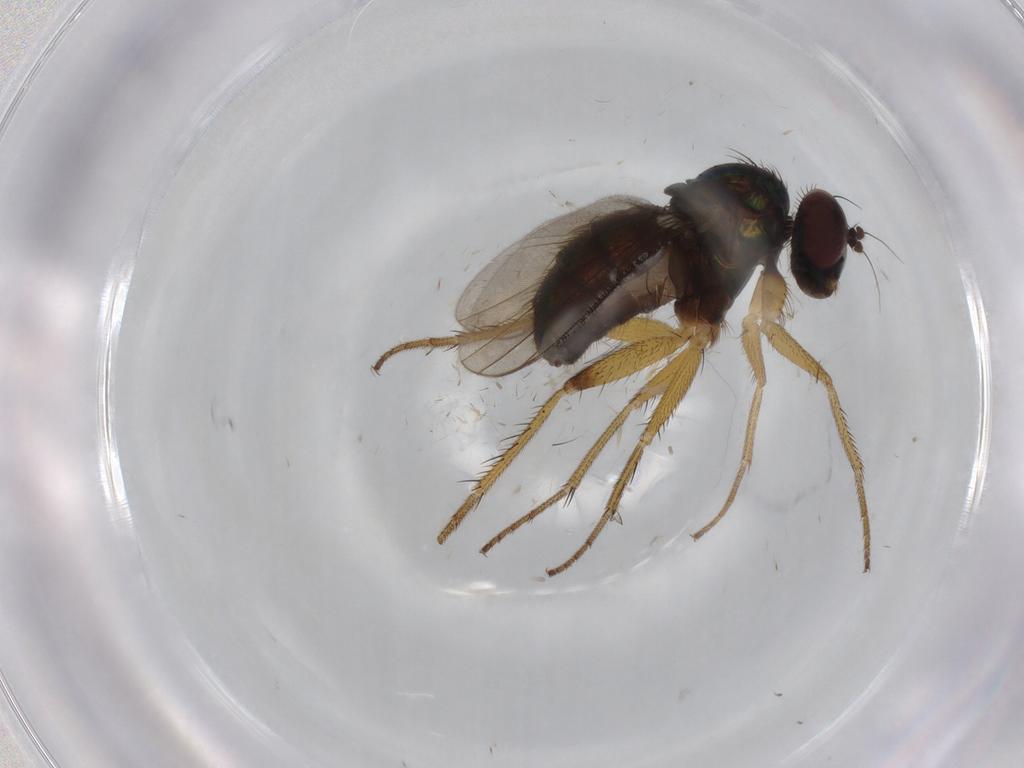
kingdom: Animalia
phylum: Arthropoda
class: Insecta
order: Diptera
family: Dolichopodidae
